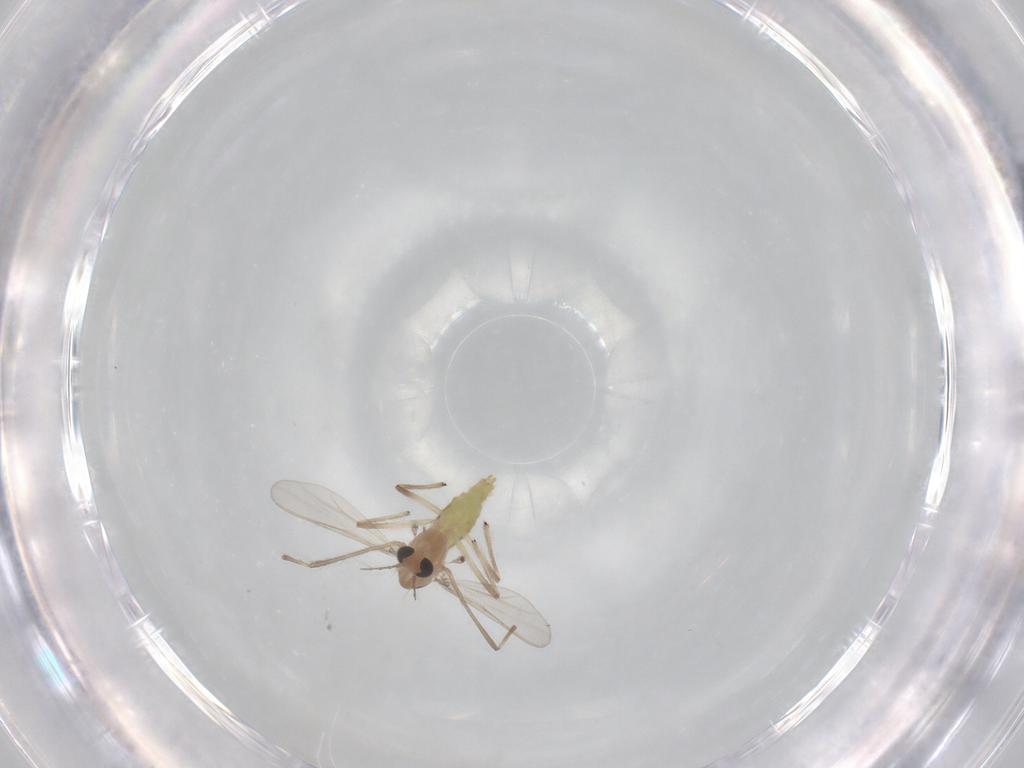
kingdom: Animalia
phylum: Arthropoda
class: Insecta
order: Diptera
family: Chironomidae
